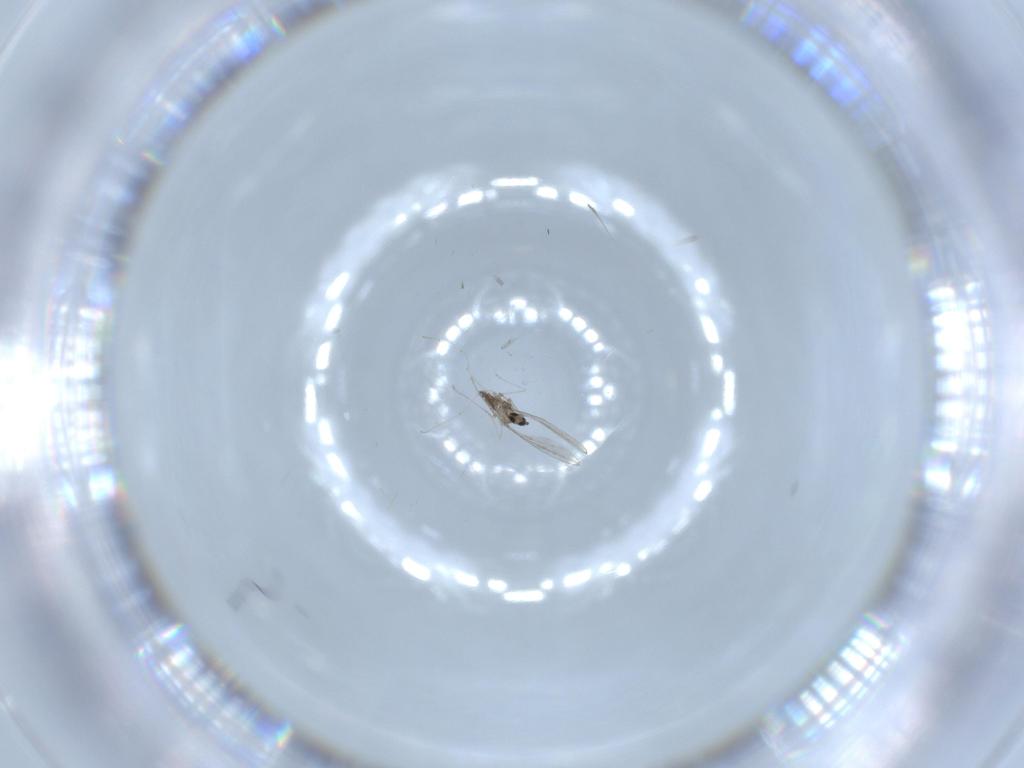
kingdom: Animalia
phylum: Arthropoda
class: Insecta
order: Diptera
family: Cecidomyiidae
